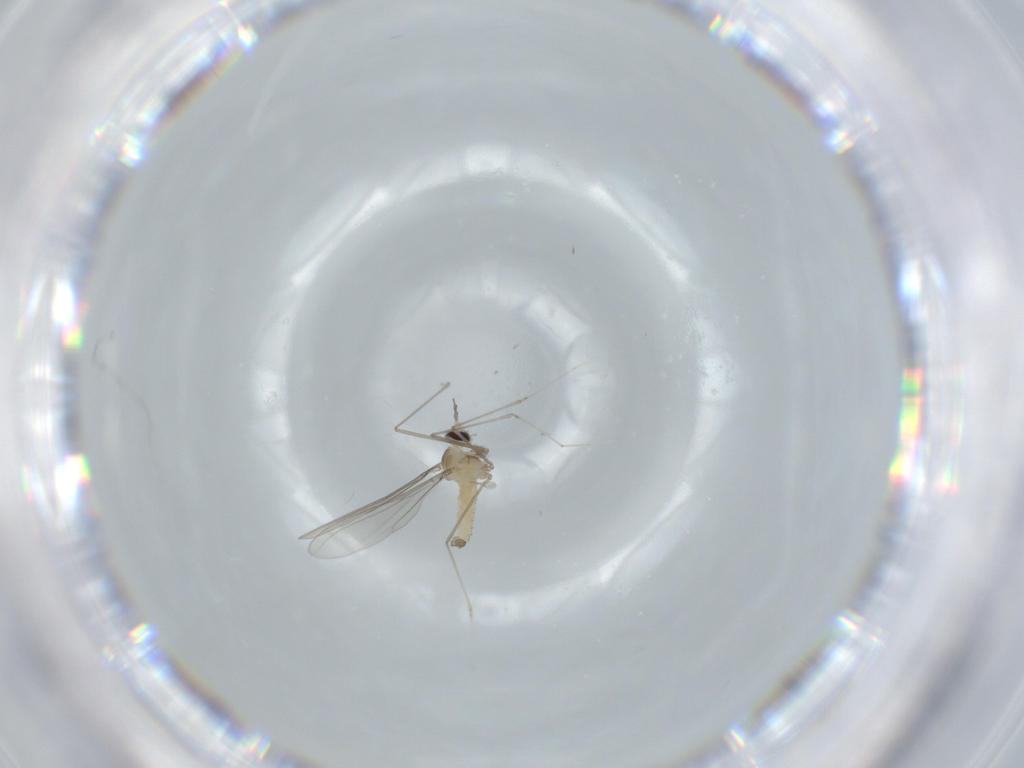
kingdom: Animalia
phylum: Arthropoda
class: Insecta
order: Diptera
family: Cecidomyiidae
